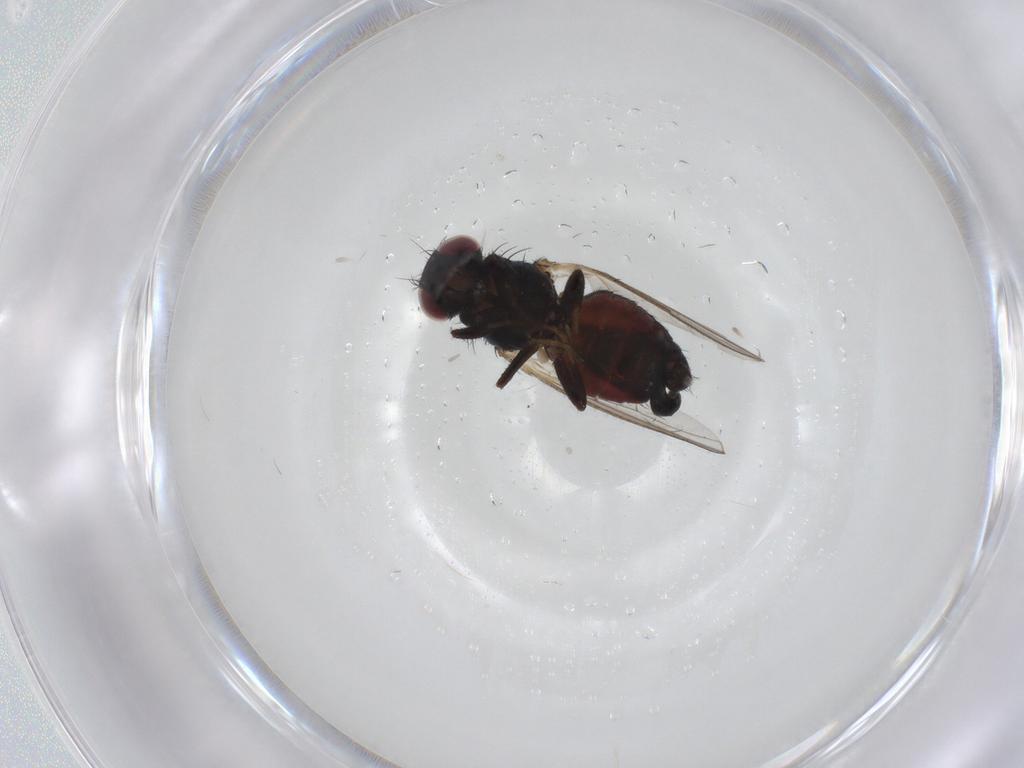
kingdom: Animalia
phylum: Arthropoda
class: Insecta
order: Diptera
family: Carnidae
